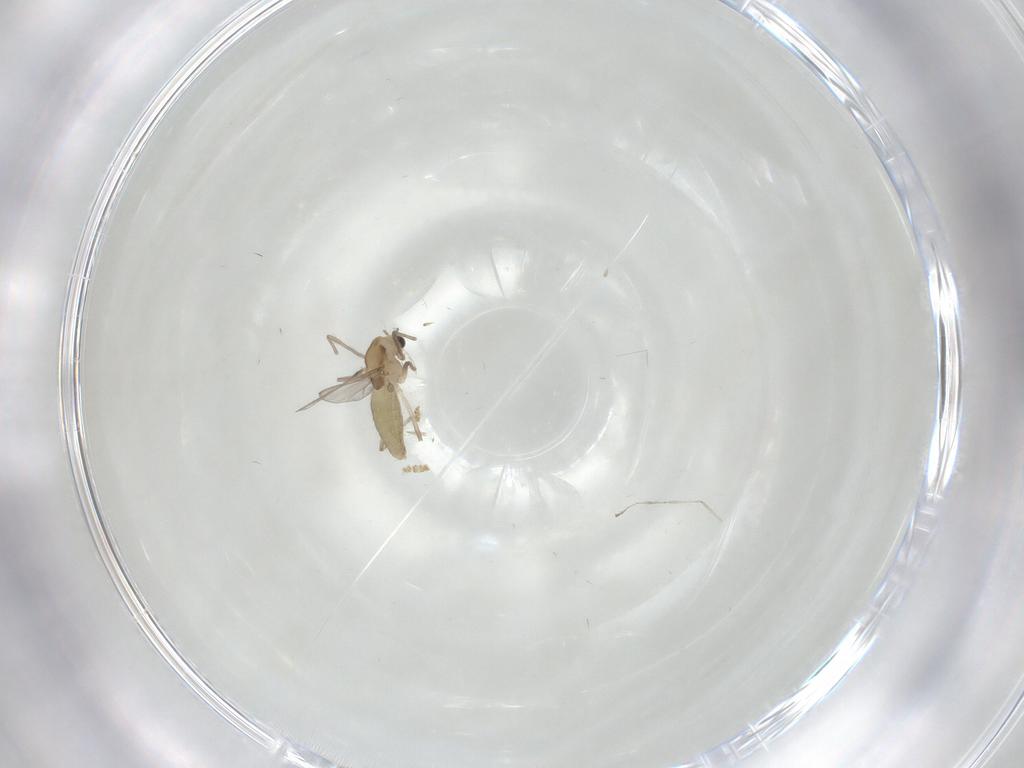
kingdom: Animalia
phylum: Arthropoda
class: Insecta
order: Diptera
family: Chironomidae
